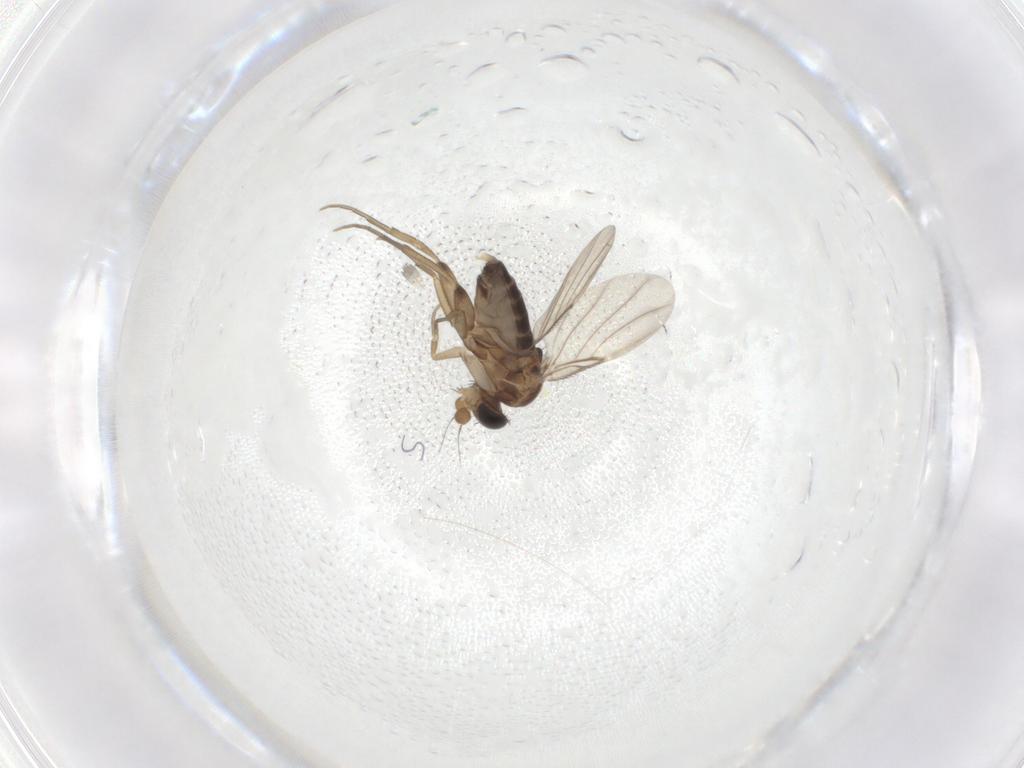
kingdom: Animalia
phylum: Arthropoda
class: Insecta
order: Diptera
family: Phoridae
